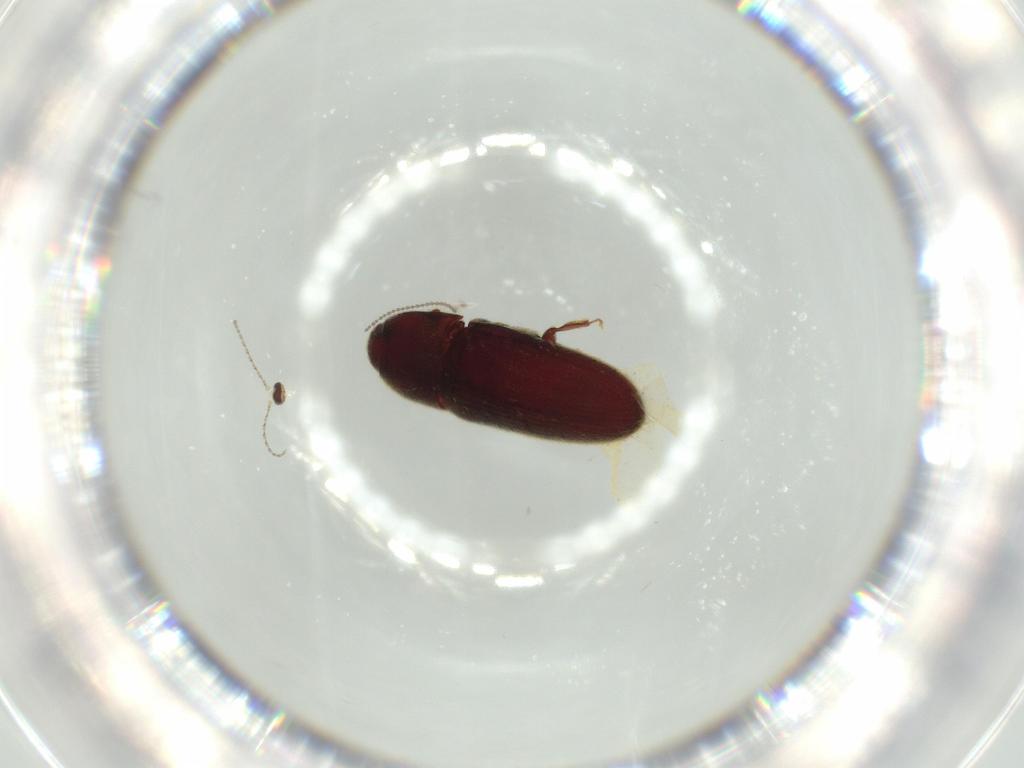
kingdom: Animalia
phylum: Arthropoda
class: Insecta
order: Coleoptera
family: Throscidae
